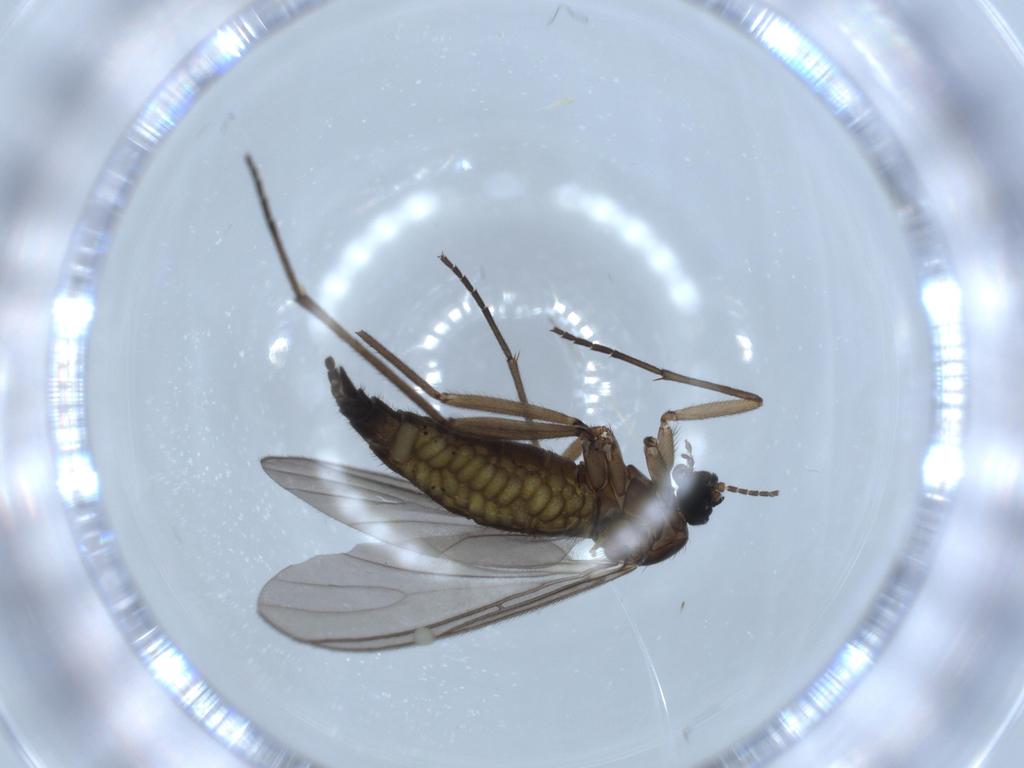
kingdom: Animalia
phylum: Arthropoda
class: Insecta
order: Diptera
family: Sciaridae
